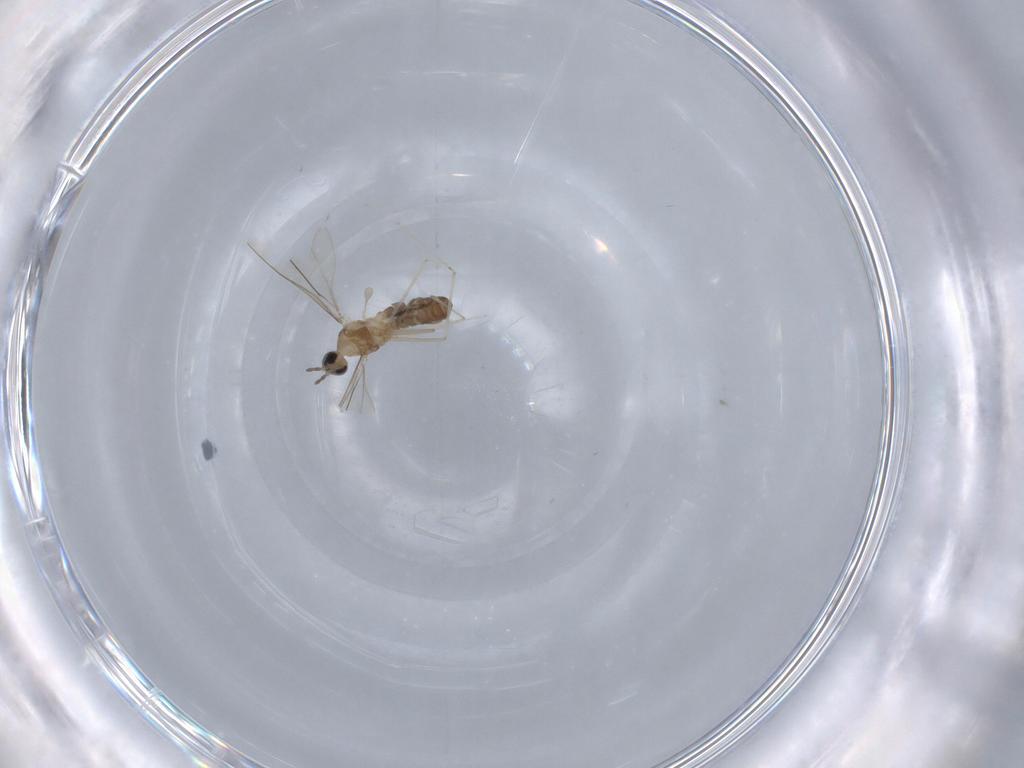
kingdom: Animalia
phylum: Arthropoda
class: Insecta
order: Diptera
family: Cecidomyiidae
